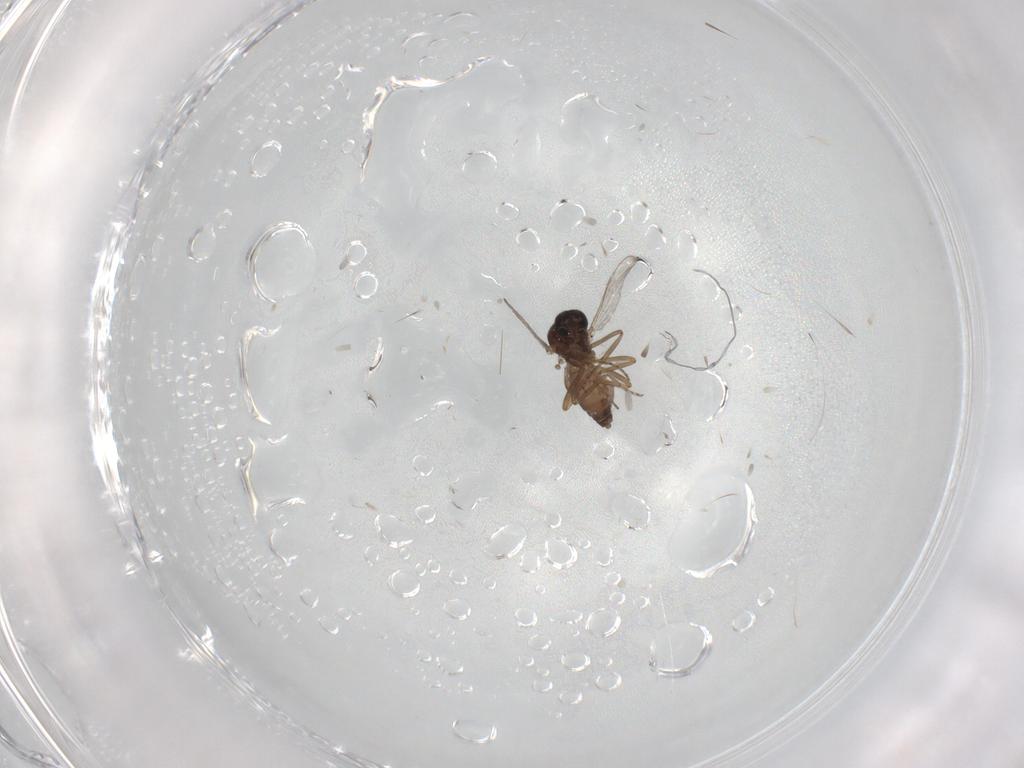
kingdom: Animalia
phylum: Arthropoda
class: Insecta
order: Diptera
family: Ceratopogonidae
